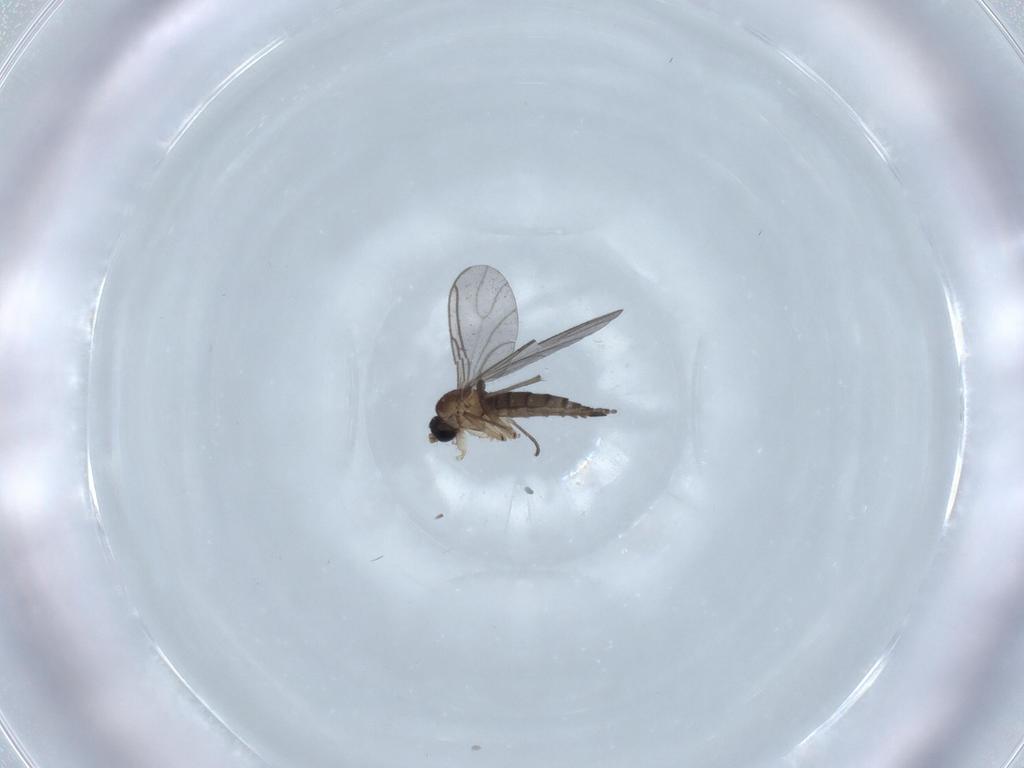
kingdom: Animalia
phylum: Arthropoda
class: Insecta
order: Diptera
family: Sciaridae
